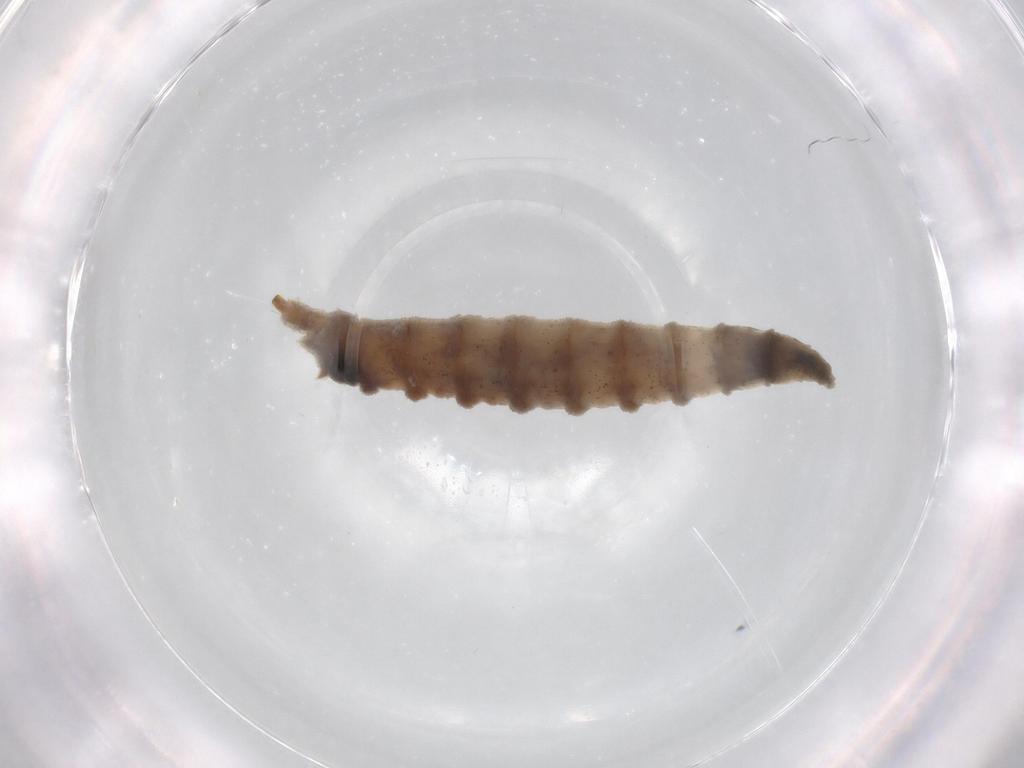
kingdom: Animalia
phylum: Arthropoda
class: Insecta
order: Diptera
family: Drosophilidae
